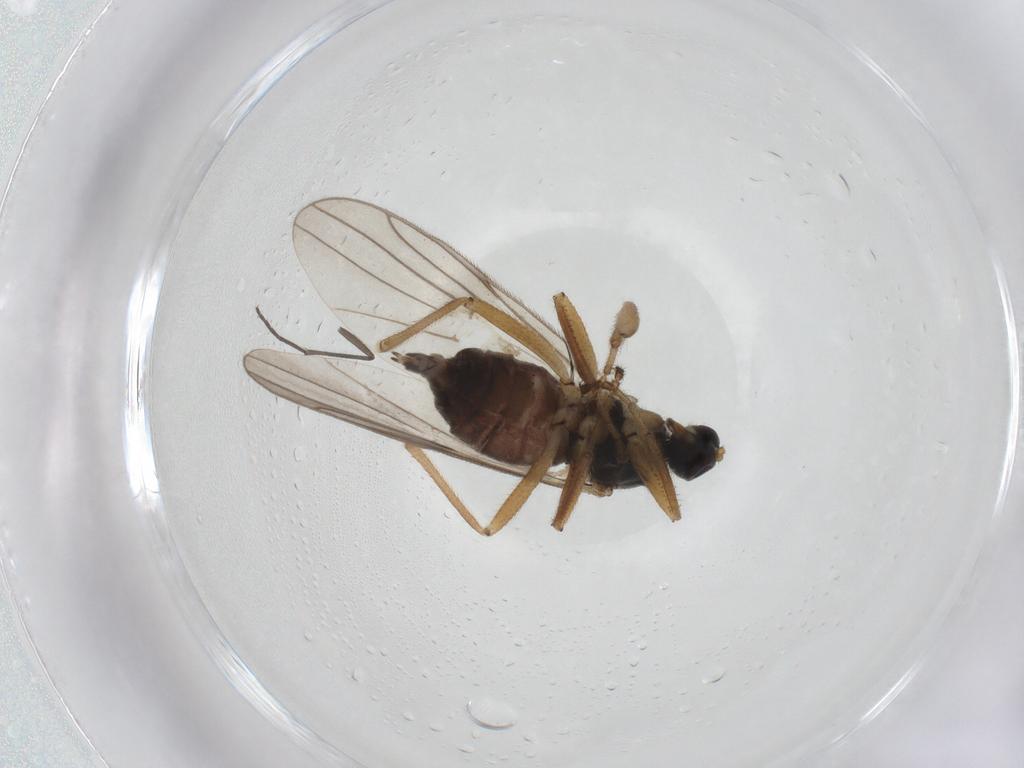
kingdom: Animalia
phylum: Arthropoda
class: Insecta
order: Diptera
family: Hybotidae
